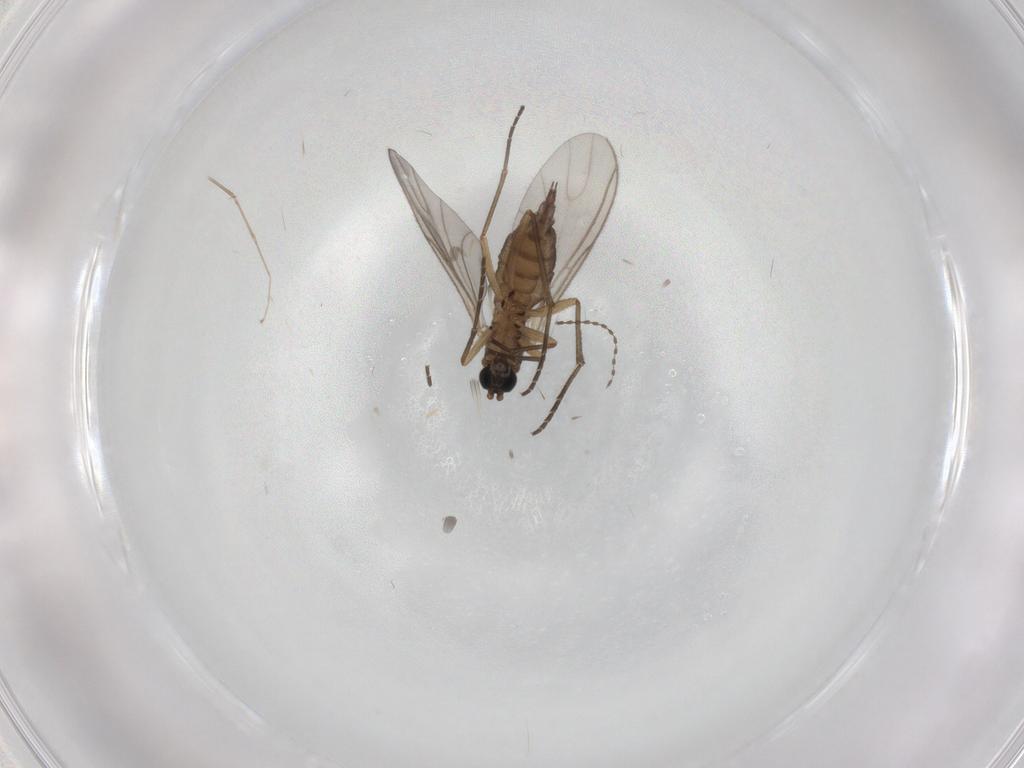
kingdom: Animalia
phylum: Arthropoda
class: Insecta
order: Diptera
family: Sciaridae
